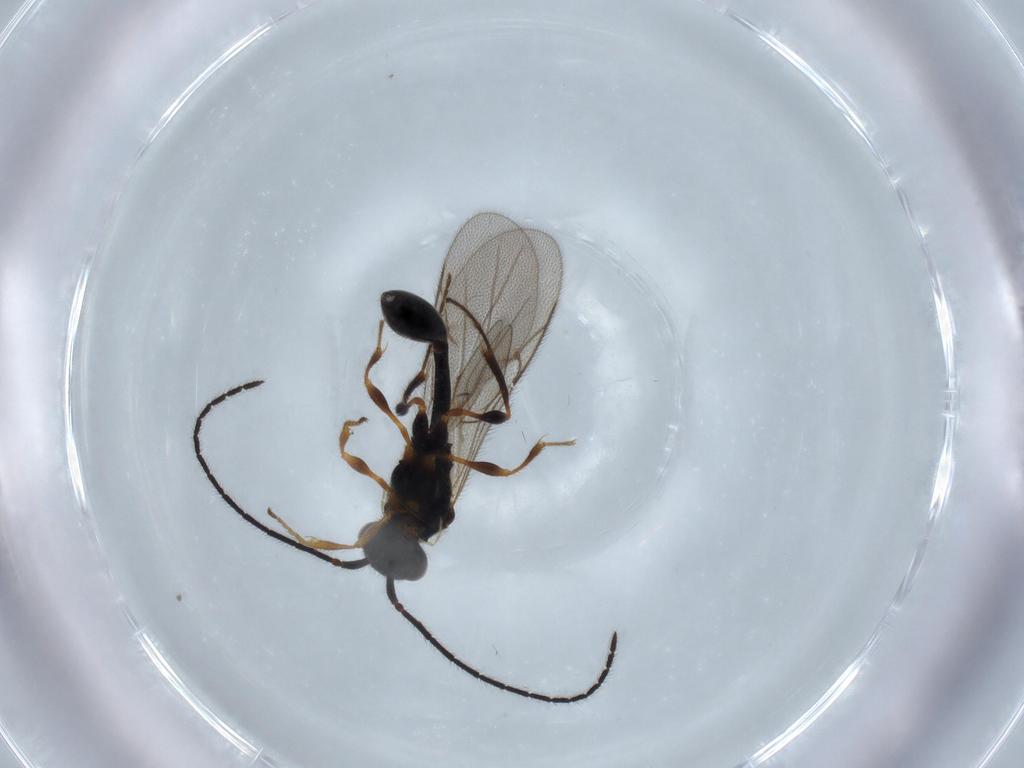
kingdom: Animalia
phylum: Arthropoda
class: Insecta
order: Hymenoptera
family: Diapriidae
